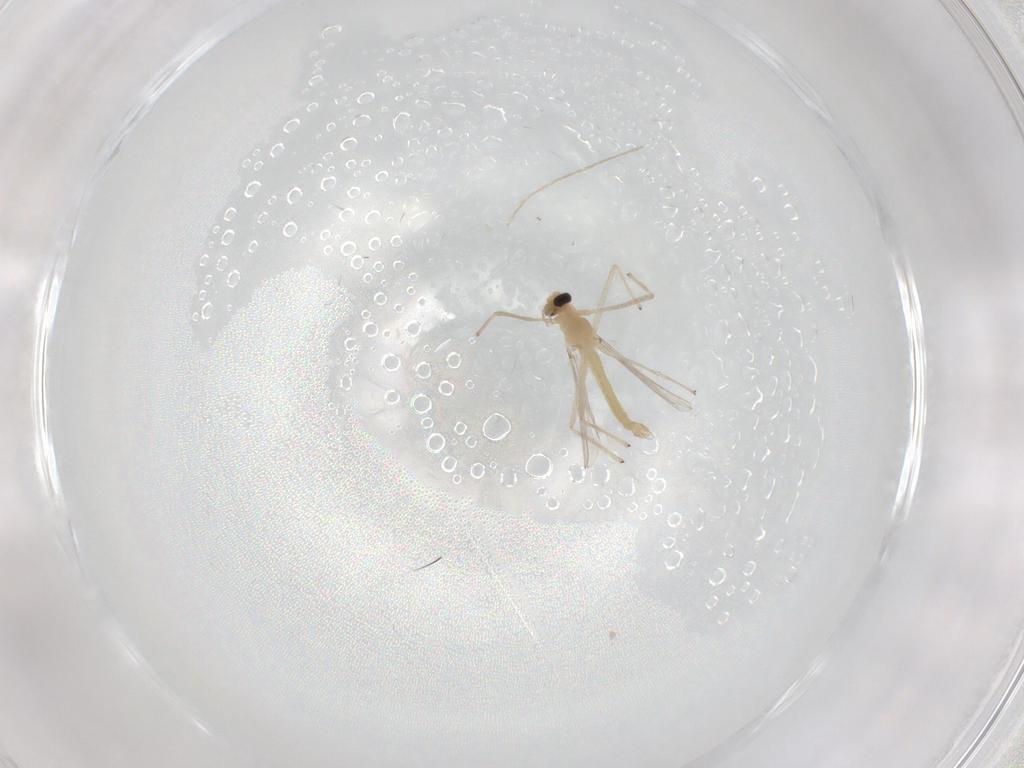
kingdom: Animalia
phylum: Arthropoda
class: Insecta
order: Diptera
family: Chironomidae
